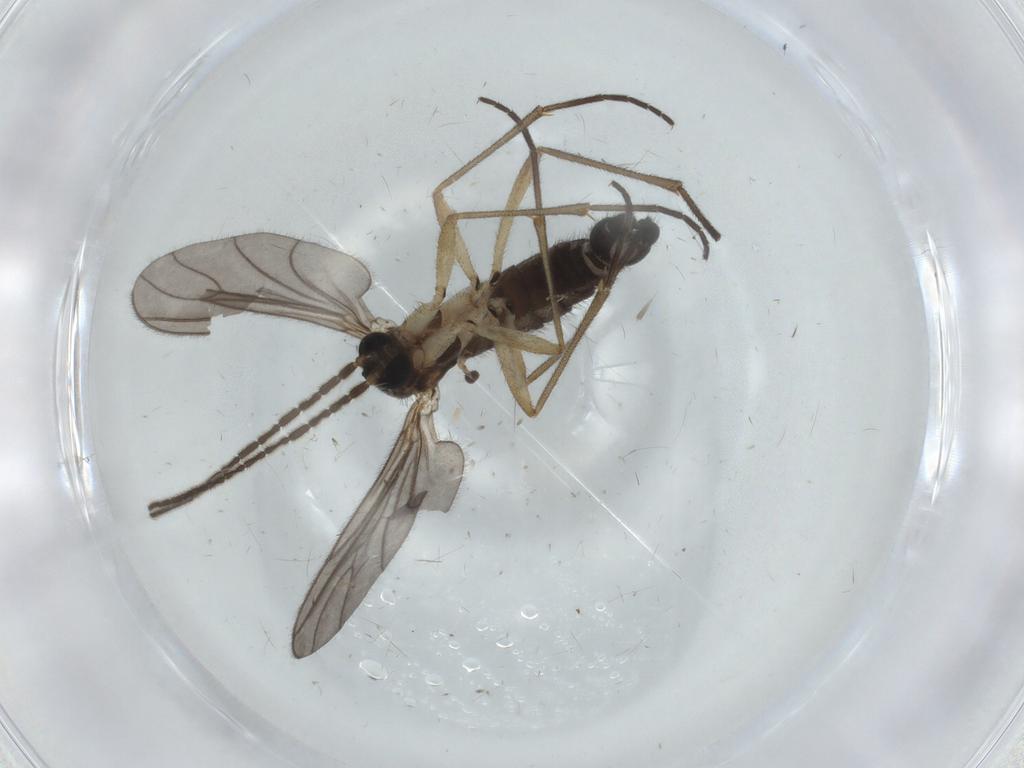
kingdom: Animalia
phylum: Arthropoda
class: Insecta
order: Diptera
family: Sciaridae
